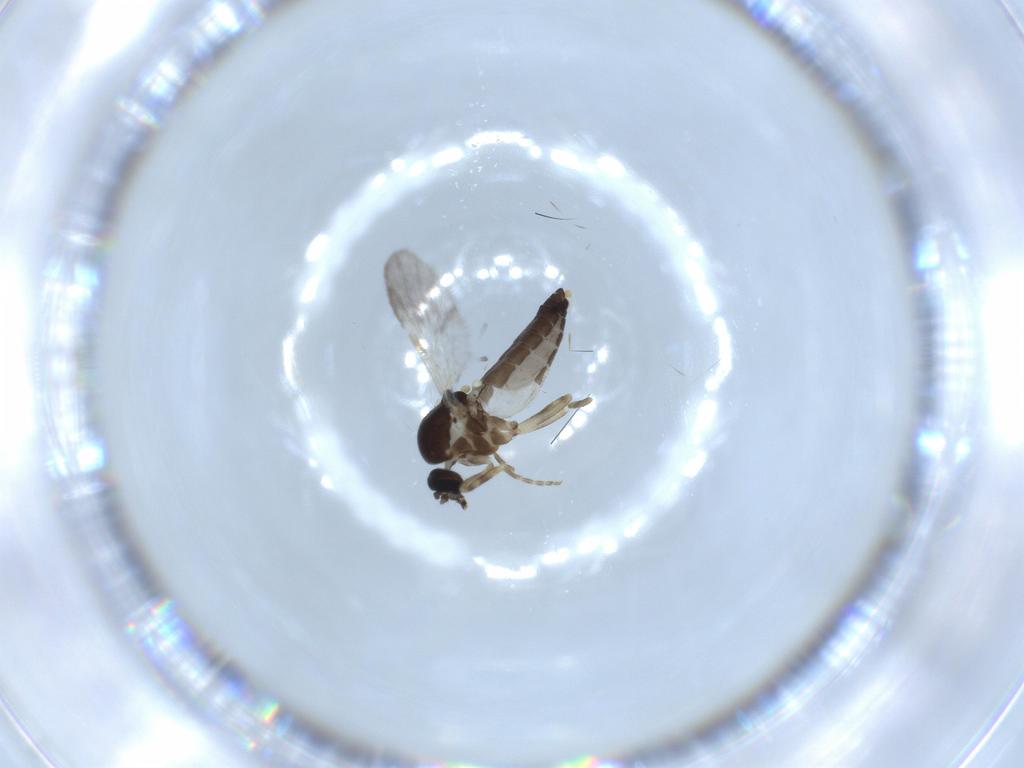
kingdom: Animalia
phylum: Arthropoda
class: Insecta
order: Diptera
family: Ceratopogonidae
